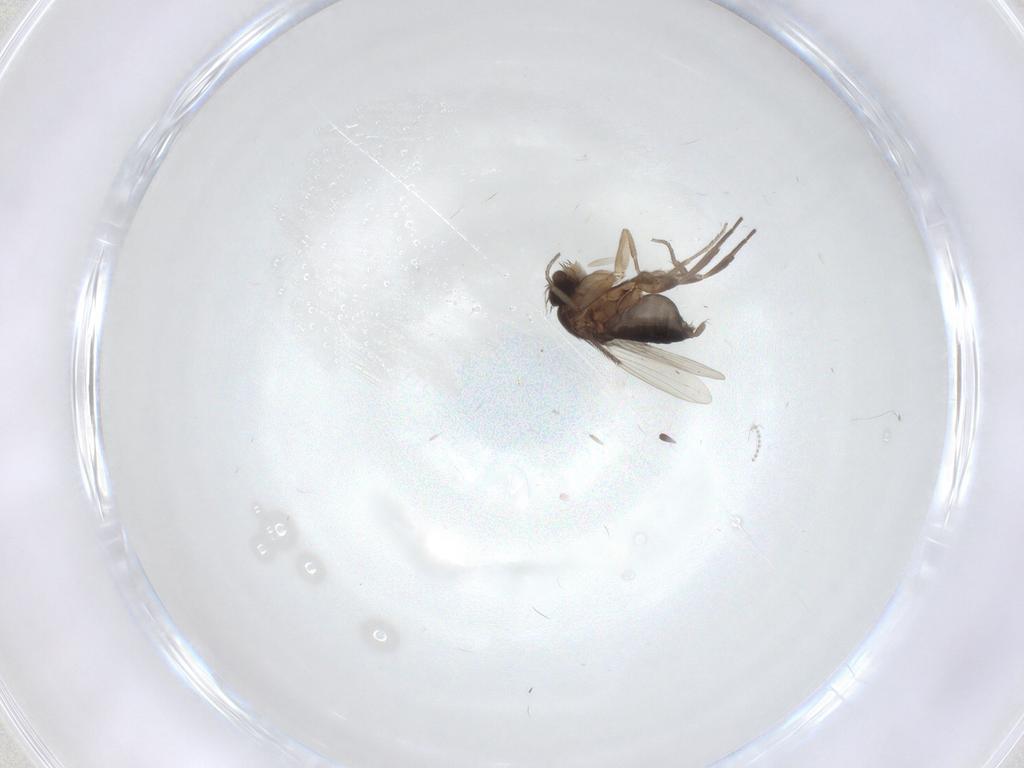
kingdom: Animalia
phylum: Arthropoda
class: Insecta
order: Diptera
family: Phoridae
